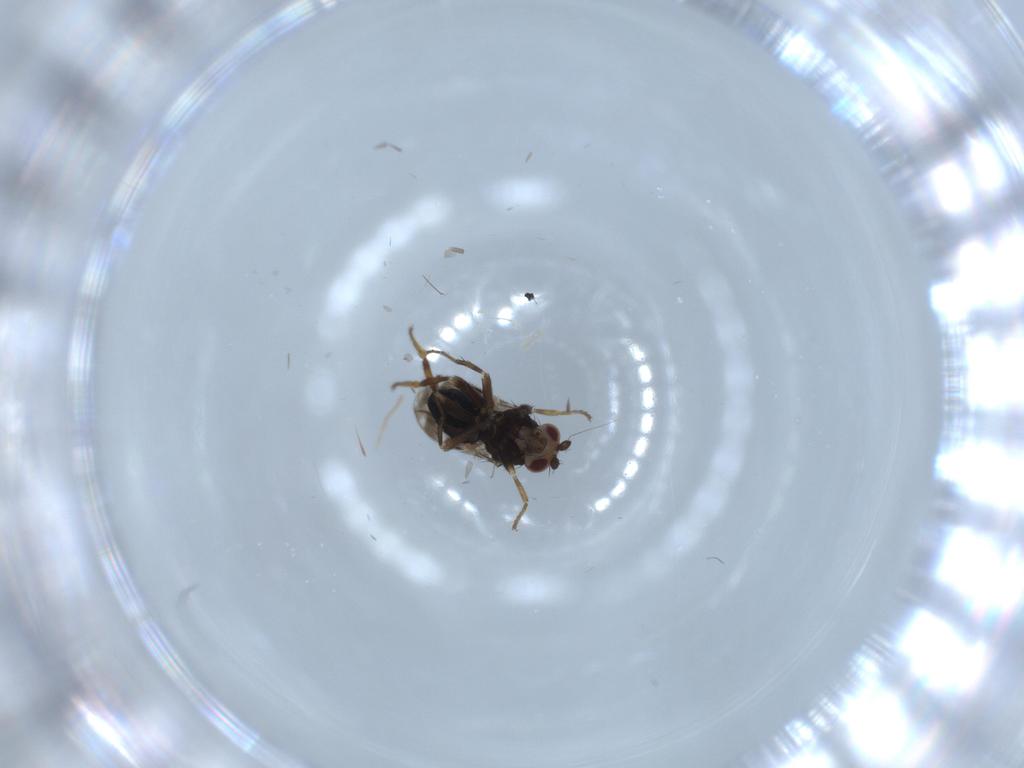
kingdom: Animalia
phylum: Arthropoda
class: Insecta
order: Diptera
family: Sphaeroceridae
